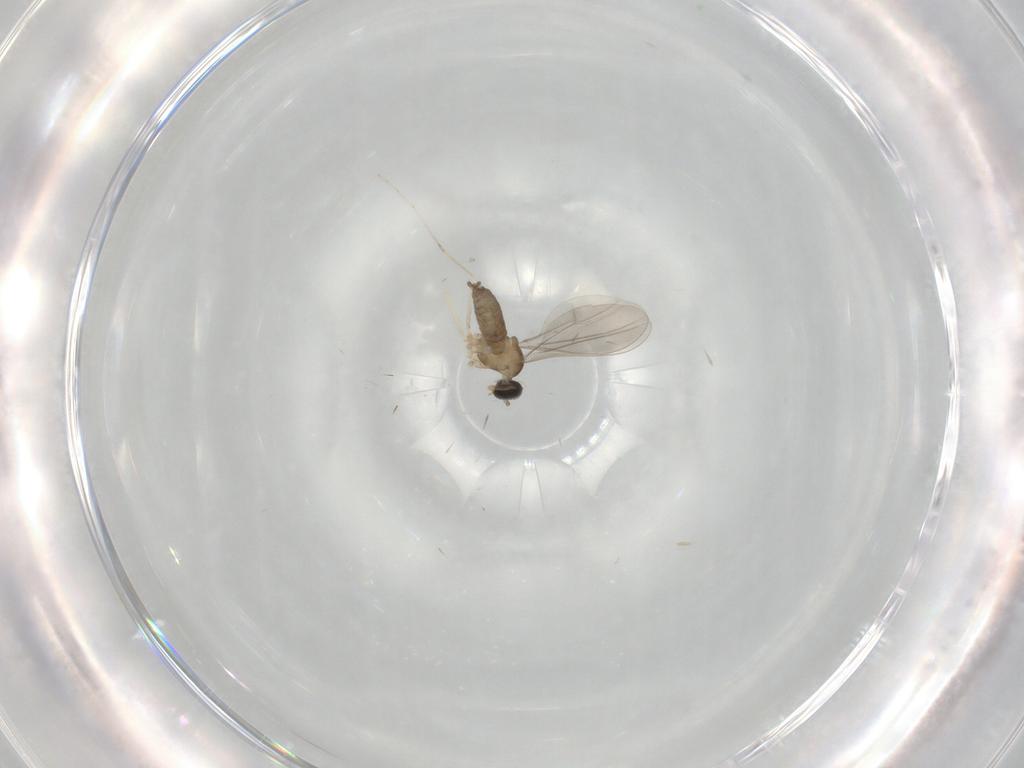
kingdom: Animalia
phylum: Arthropoda
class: Insecta
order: Diptera
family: Cecidomyiidae
